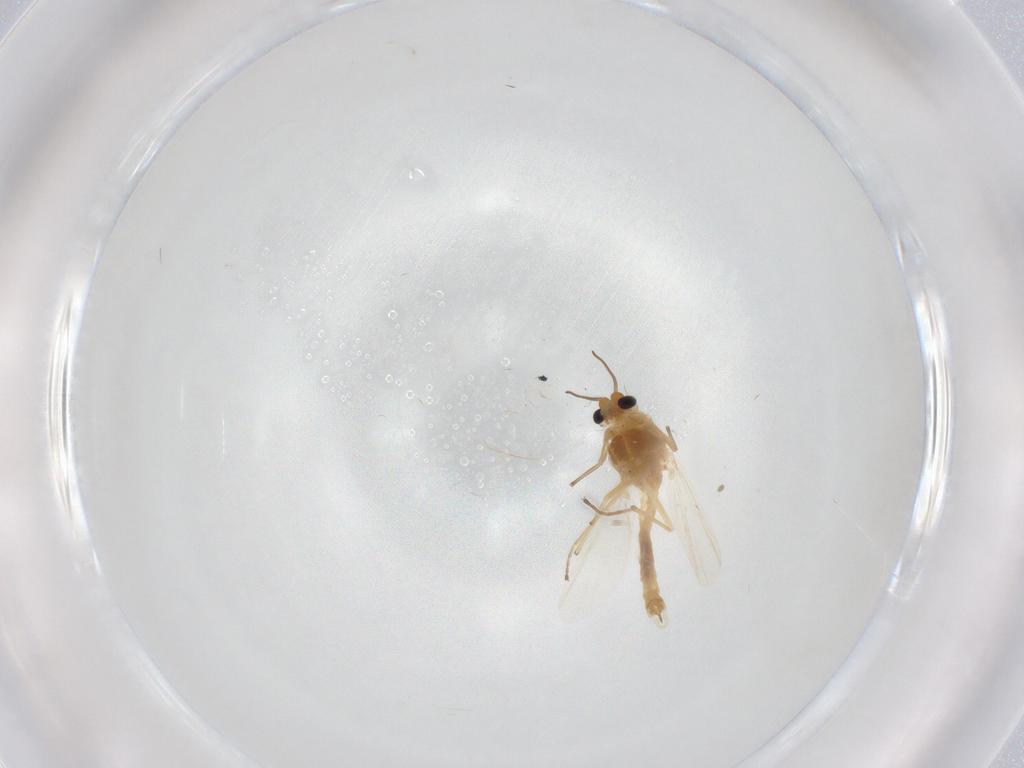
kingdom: Animalia
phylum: Arthropoda
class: Insecta
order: Diptera
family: Chironomidae
